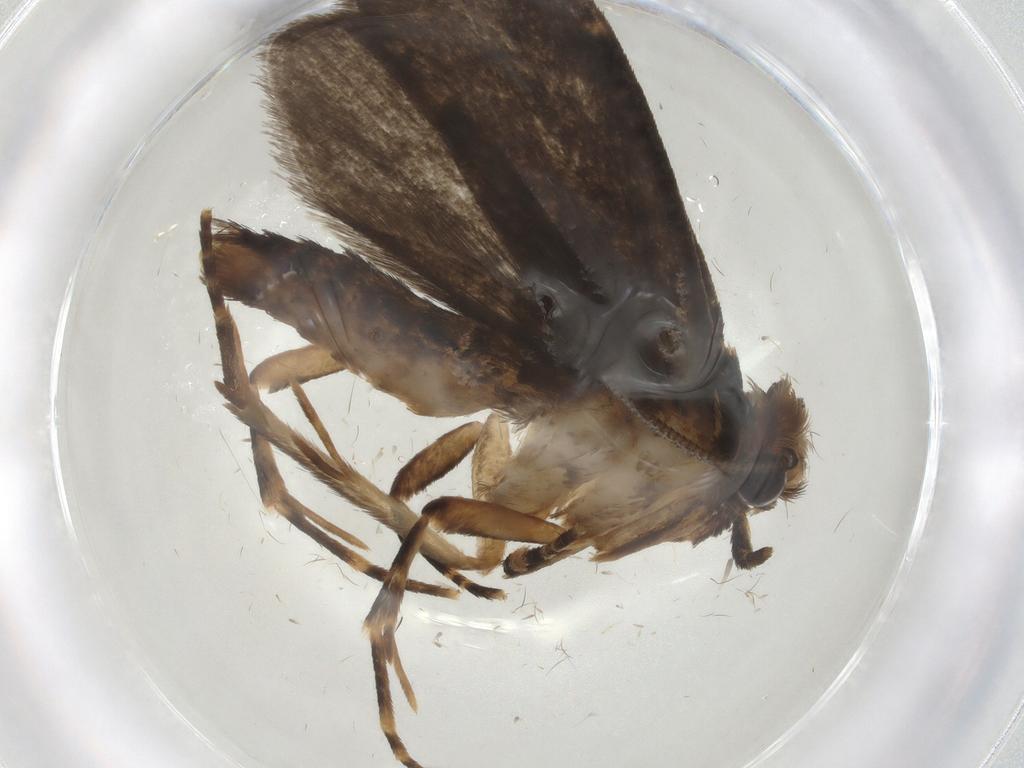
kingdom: Animalia
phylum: Arthropoda
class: Insecta
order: Lepidoptera
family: Tineidae
